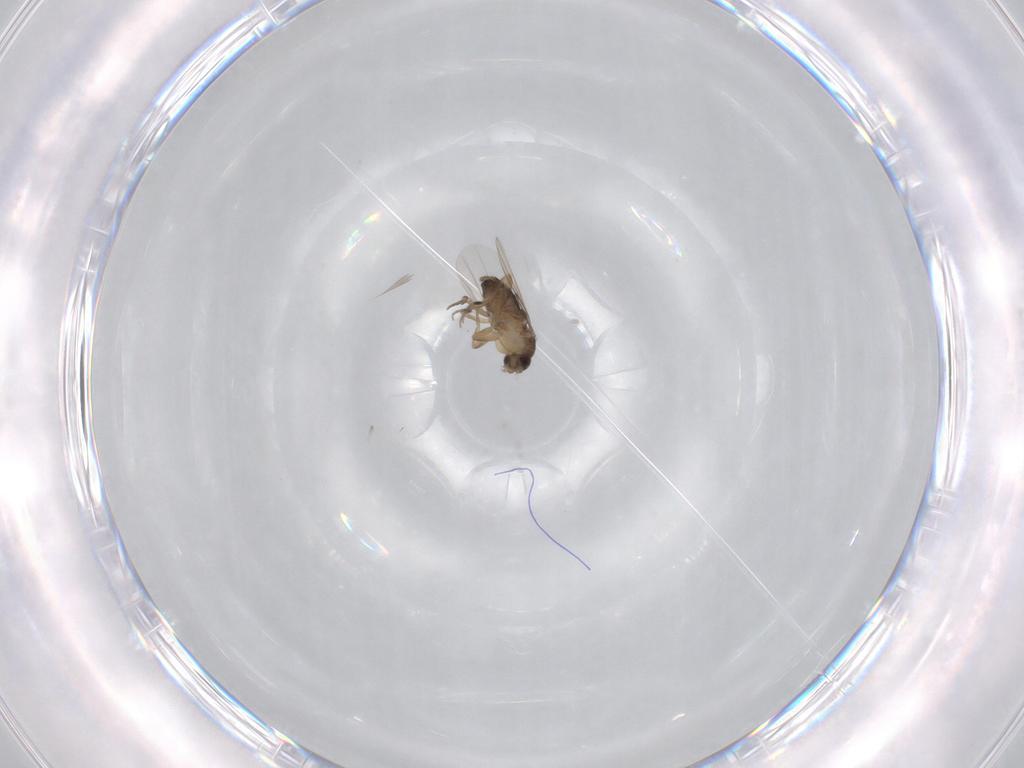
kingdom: Animalia
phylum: Arthropoda
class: Insecta
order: Diptera
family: Phoridae
